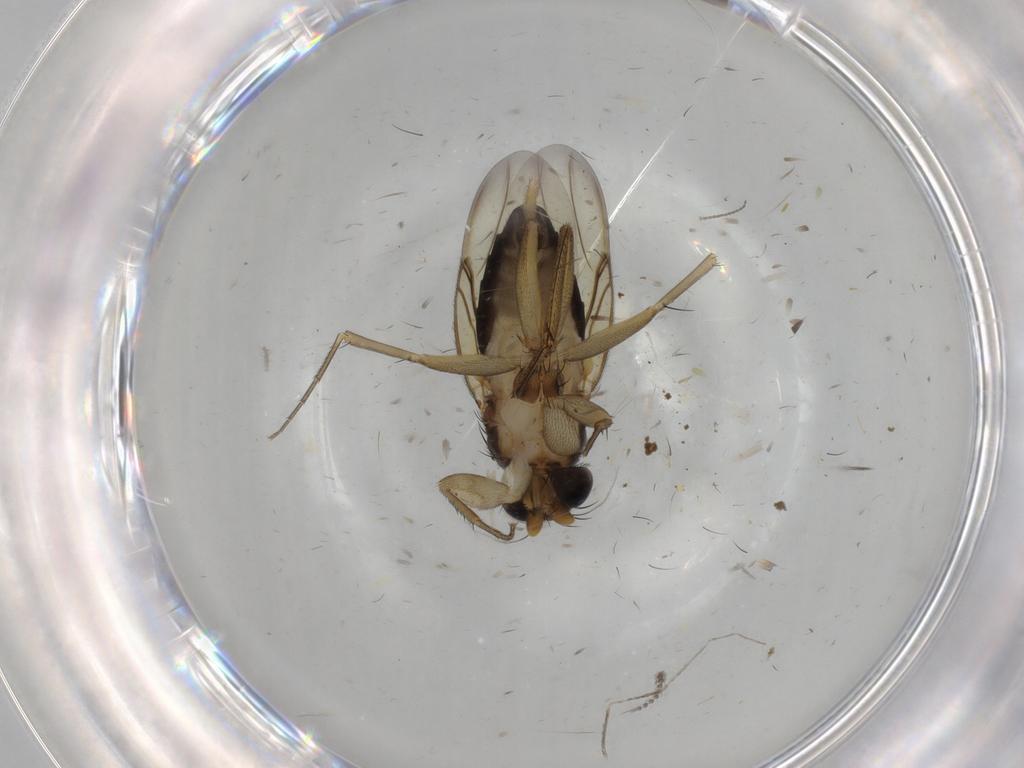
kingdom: Animalia
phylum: Arthropoda
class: Insecta
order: Diptera
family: Phoridae
